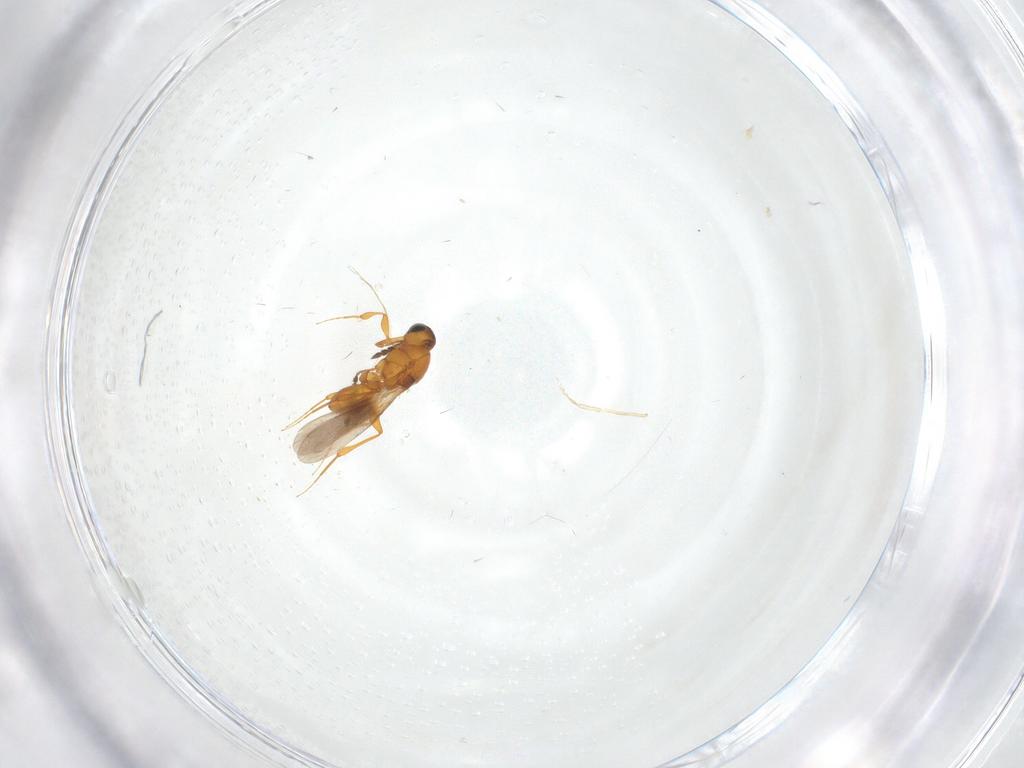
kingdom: Animalia
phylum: Arthropoda
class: Insecta
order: Hymenoptera
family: Platygastridae
